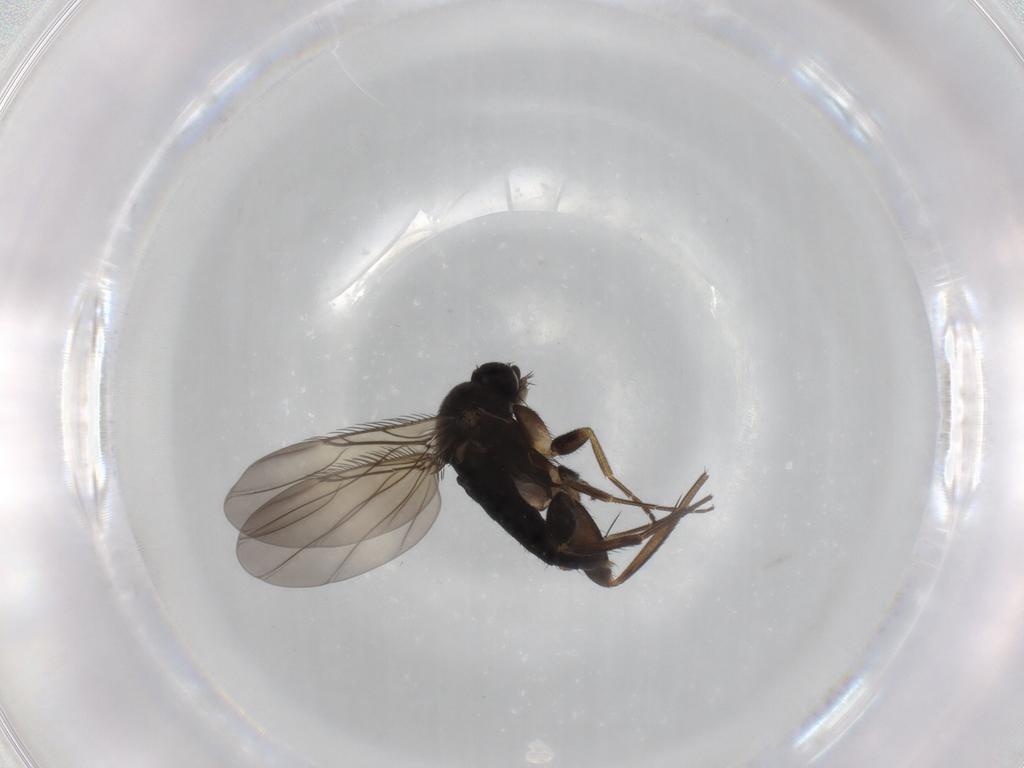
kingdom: Animalia
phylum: Arthropoda
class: Insecta
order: Diptera
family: Phoridae
